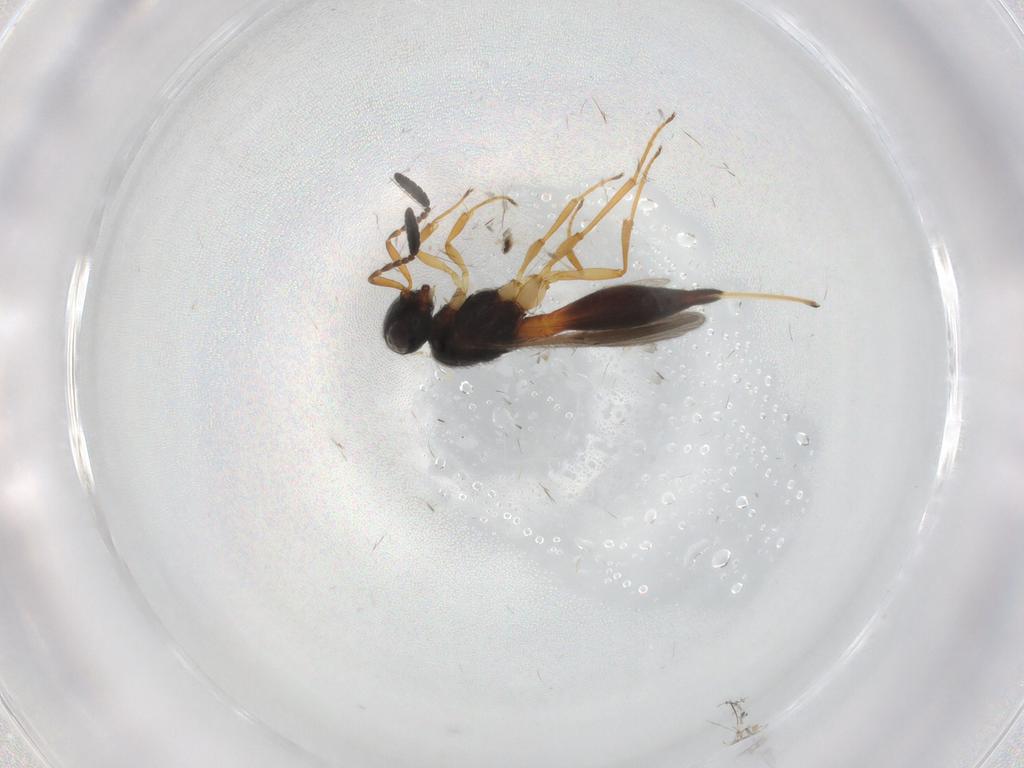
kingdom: Animalia
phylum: Arthropoda
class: Insecta
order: Hymenoptera
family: Scelionidae
